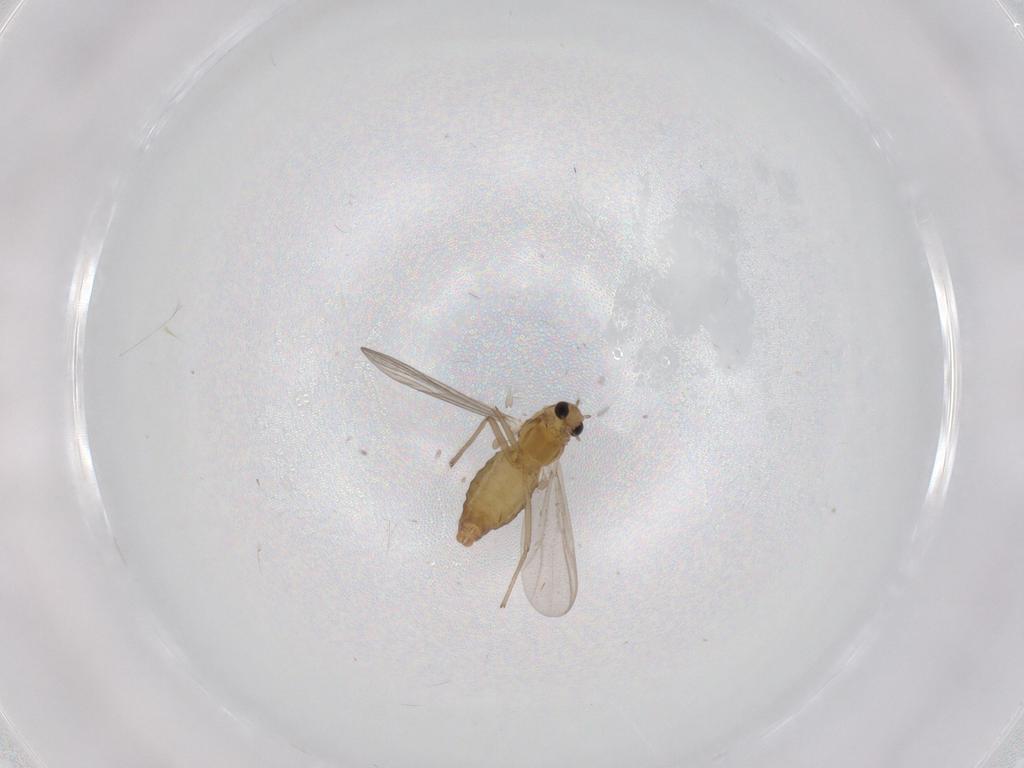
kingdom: Animalia
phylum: Arthropoda
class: Insecta
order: Diptera
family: Chironomidae
